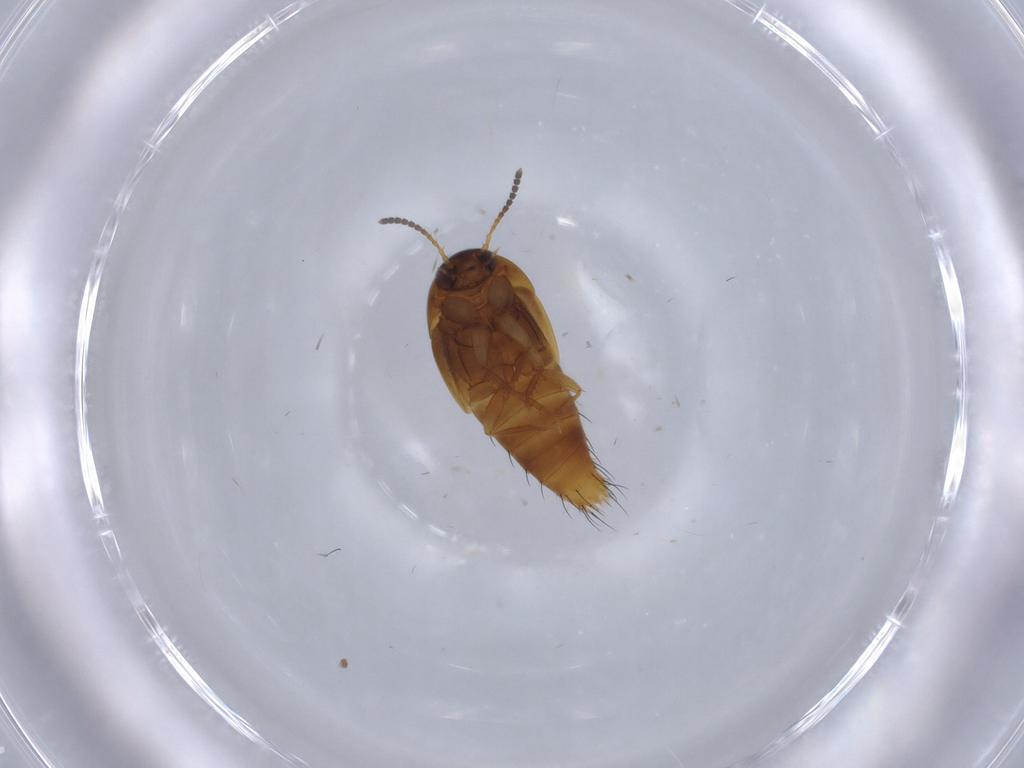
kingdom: Animalia
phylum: Arthropoda
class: Insecta
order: Coleoptera
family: Staphylinidae
